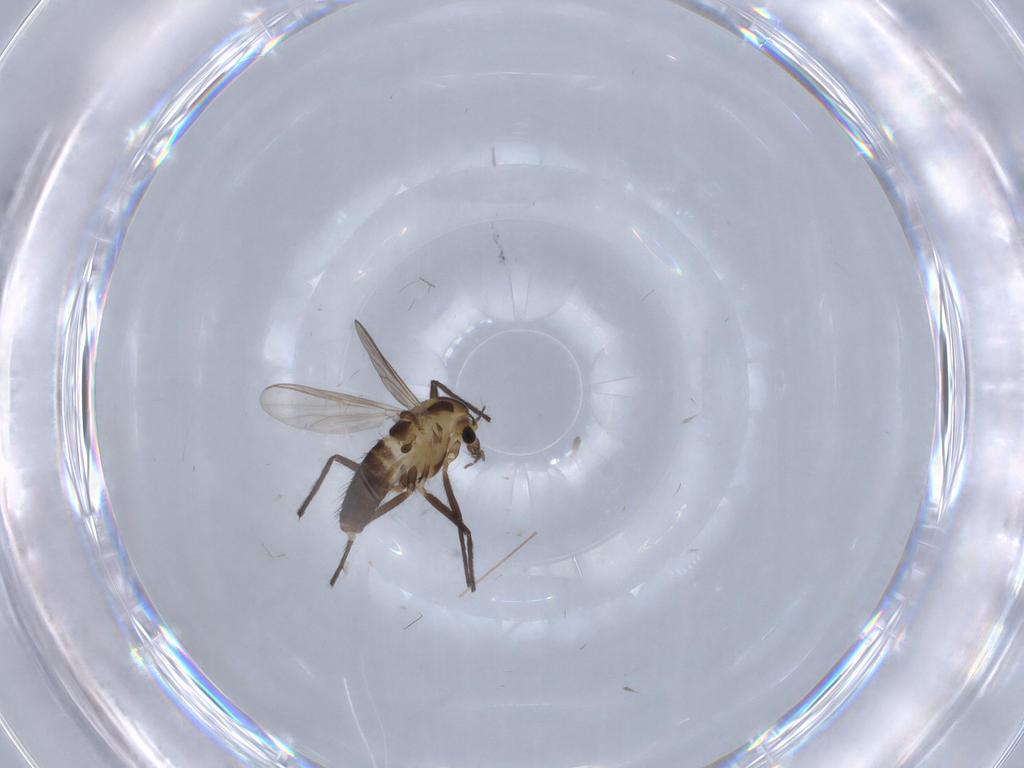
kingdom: Animalia
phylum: Arthropoda
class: Insecta
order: Diptera
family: Chironomidae
